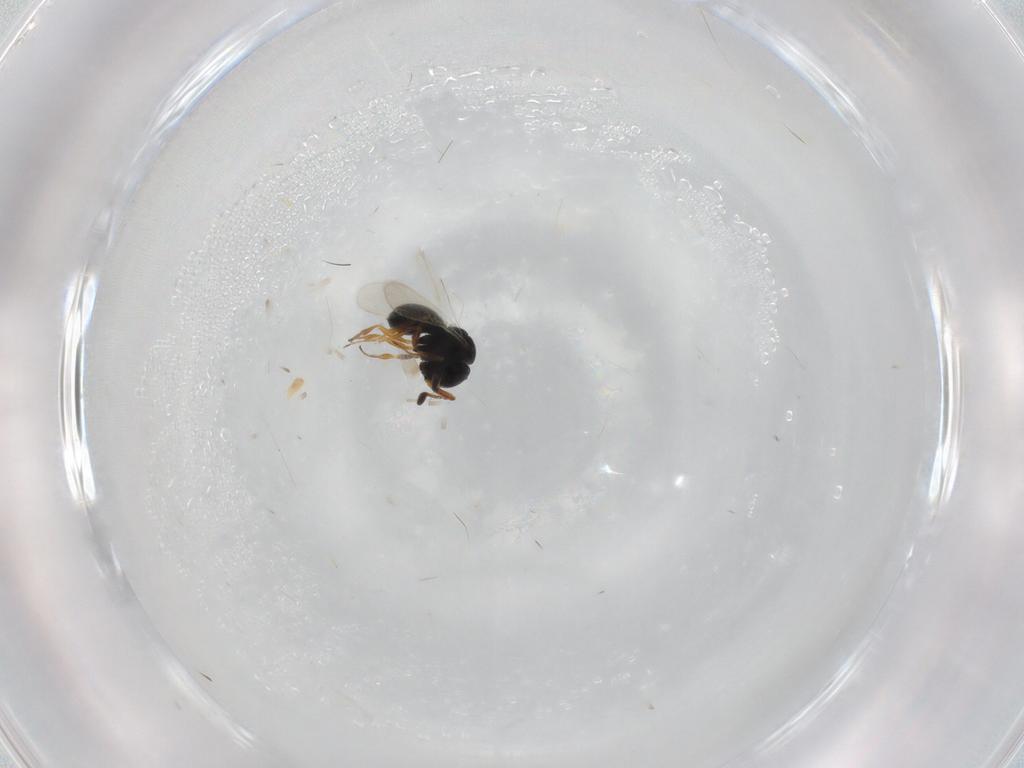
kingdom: Animalia
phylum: Arthropoda
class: Insecta
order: Hymenoptera
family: Scelionidae
